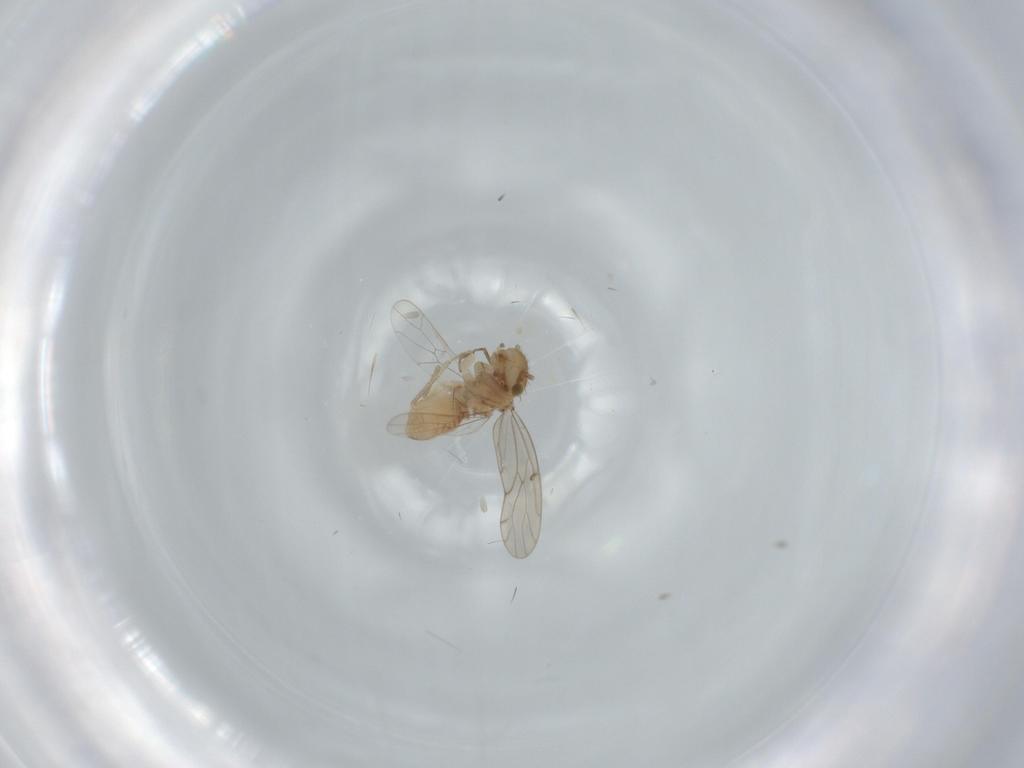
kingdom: Animalia
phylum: Arthropoda
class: Insecta
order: Psocodea
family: Ectopsocidae
